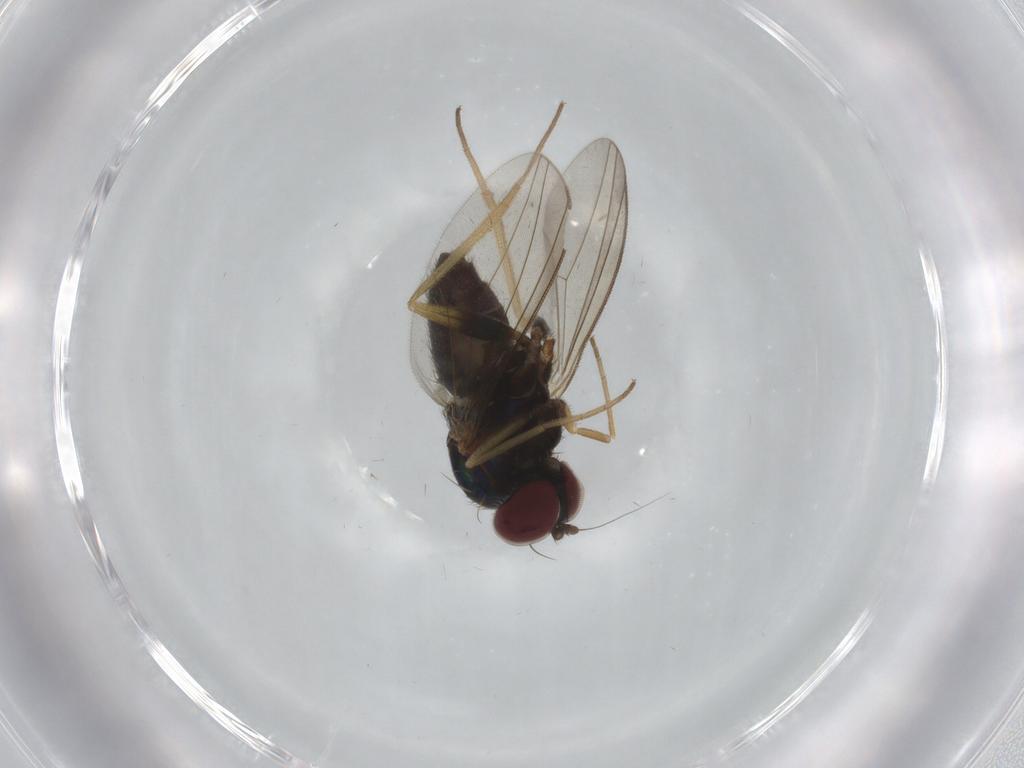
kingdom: Animalia
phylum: Arthropoda
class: Insecta
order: Diptera
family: Dolichopodidae
